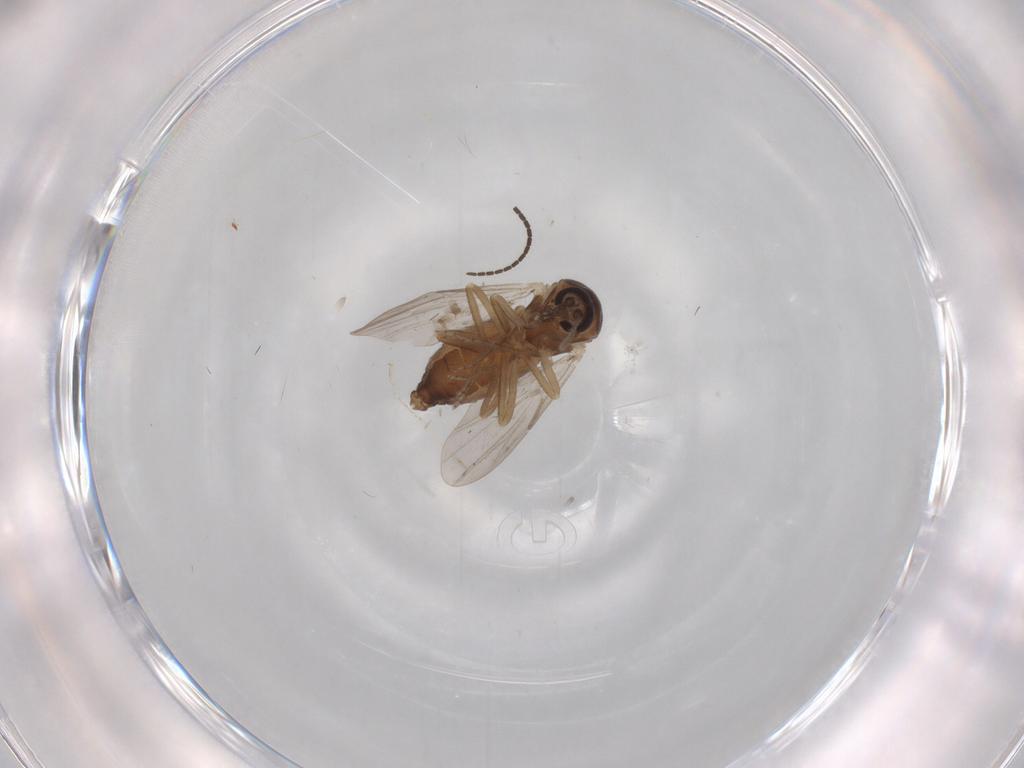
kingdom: Animalia
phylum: Arthropoda
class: Insecta
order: Diptera
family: Ceratopogonidae
